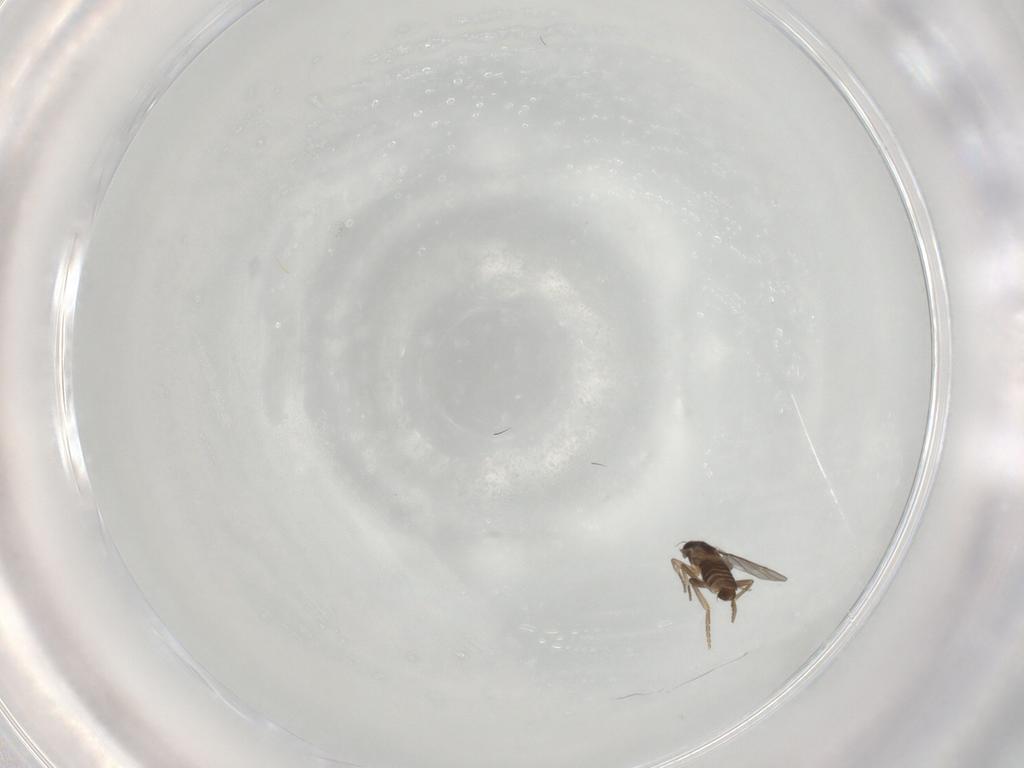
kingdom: Animalia
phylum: Arthropoda
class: Insecta
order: Diptera
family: Phoridae
